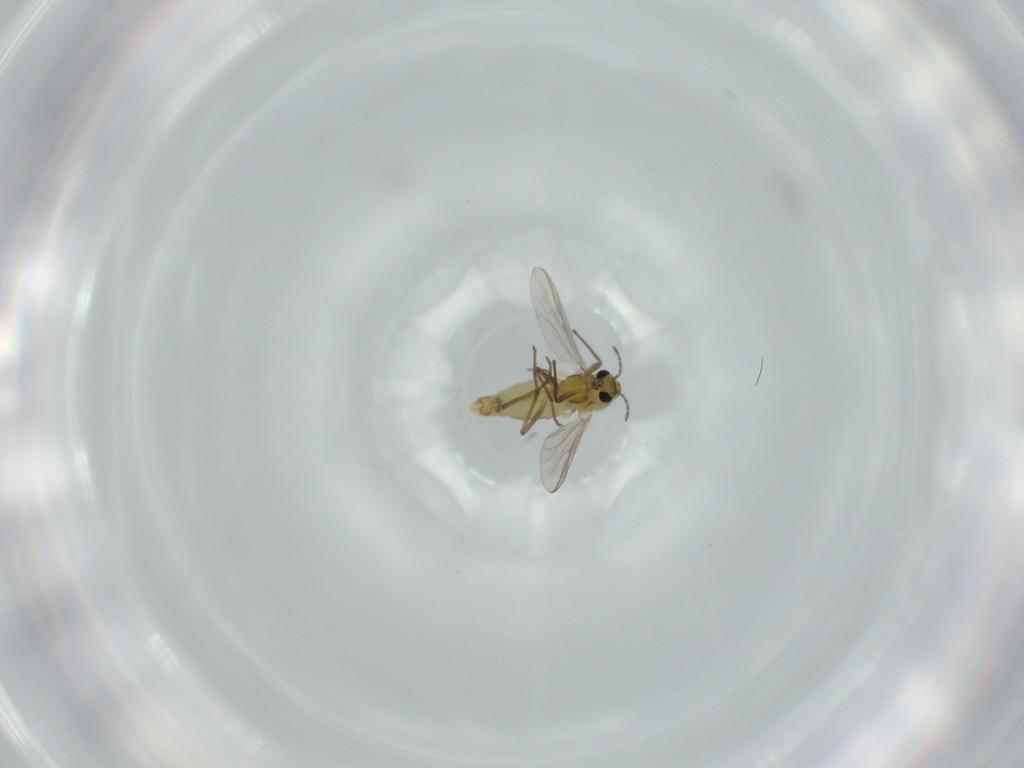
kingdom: Animalia
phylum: Arthropoda
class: Insecta
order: Diptera
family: Chironomidae
